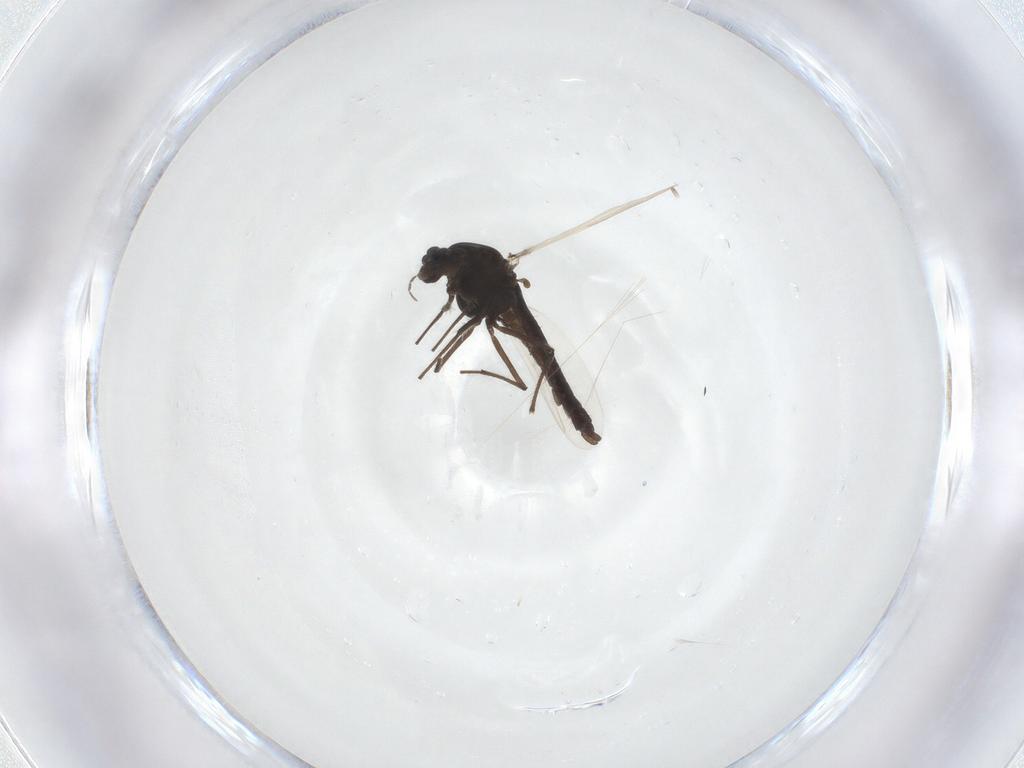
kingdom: Animalia
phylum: Arthropoda
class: Insecta
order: Diptera
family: Chironomidae
